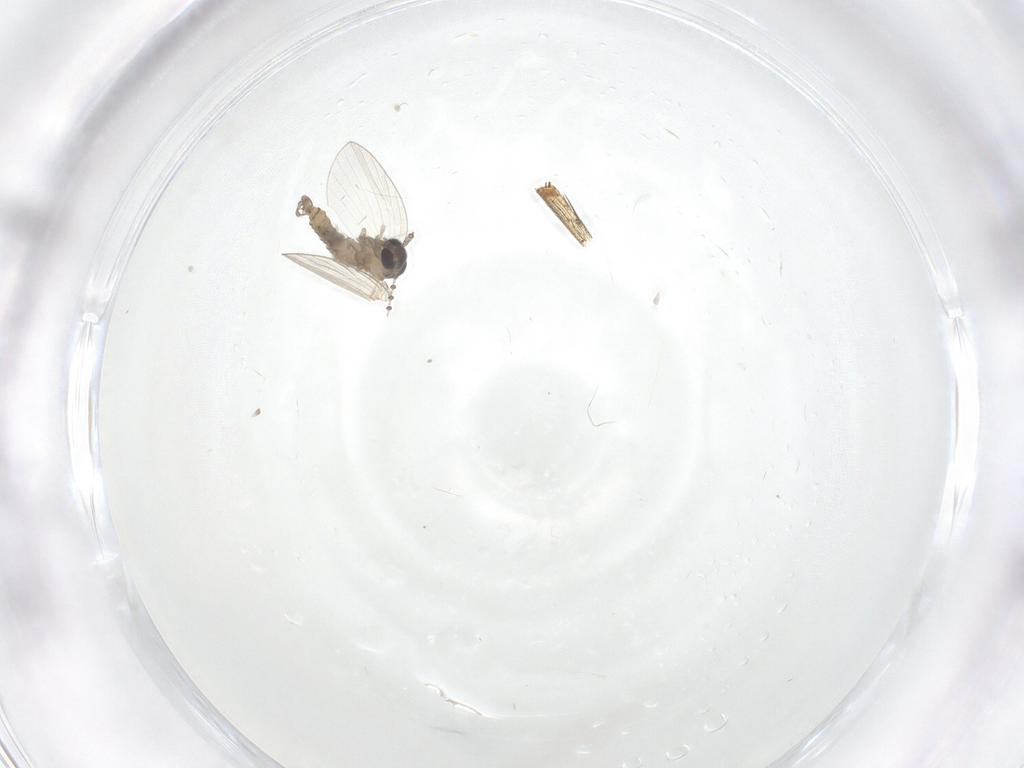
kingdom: Animalia
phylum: Arthropoda
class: Insecta
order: Diptera
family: Psychodidae
